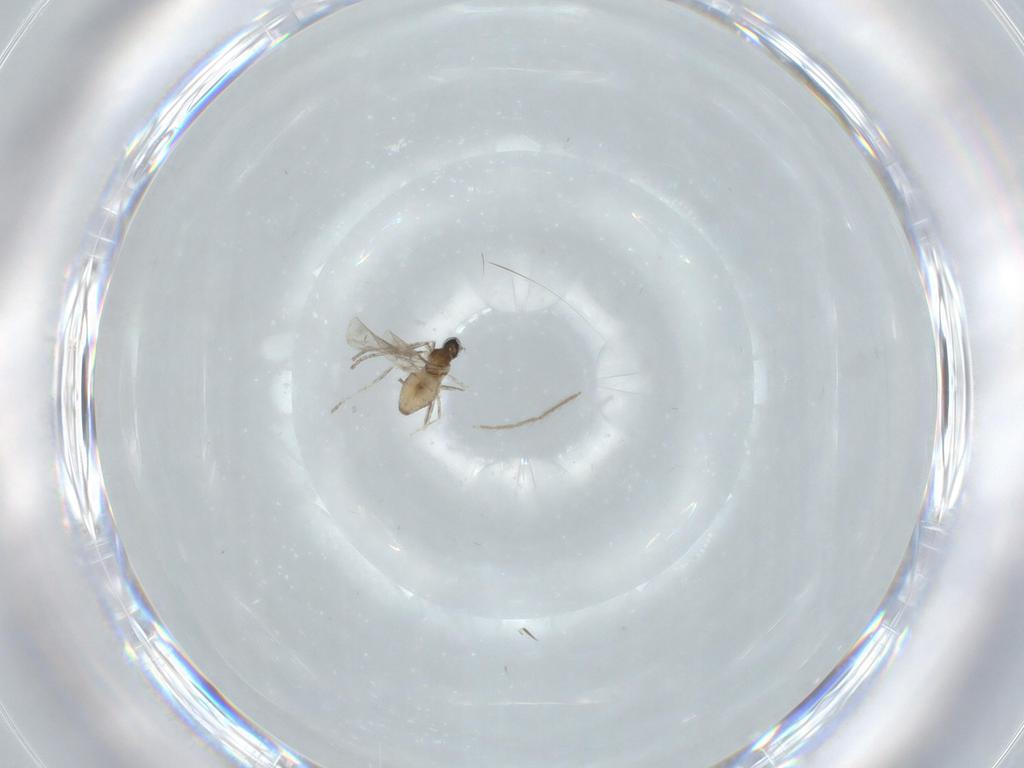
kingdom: Animalia
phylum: Arthropoda
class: Insecta
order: Diptera
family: Cecidomyiidae
